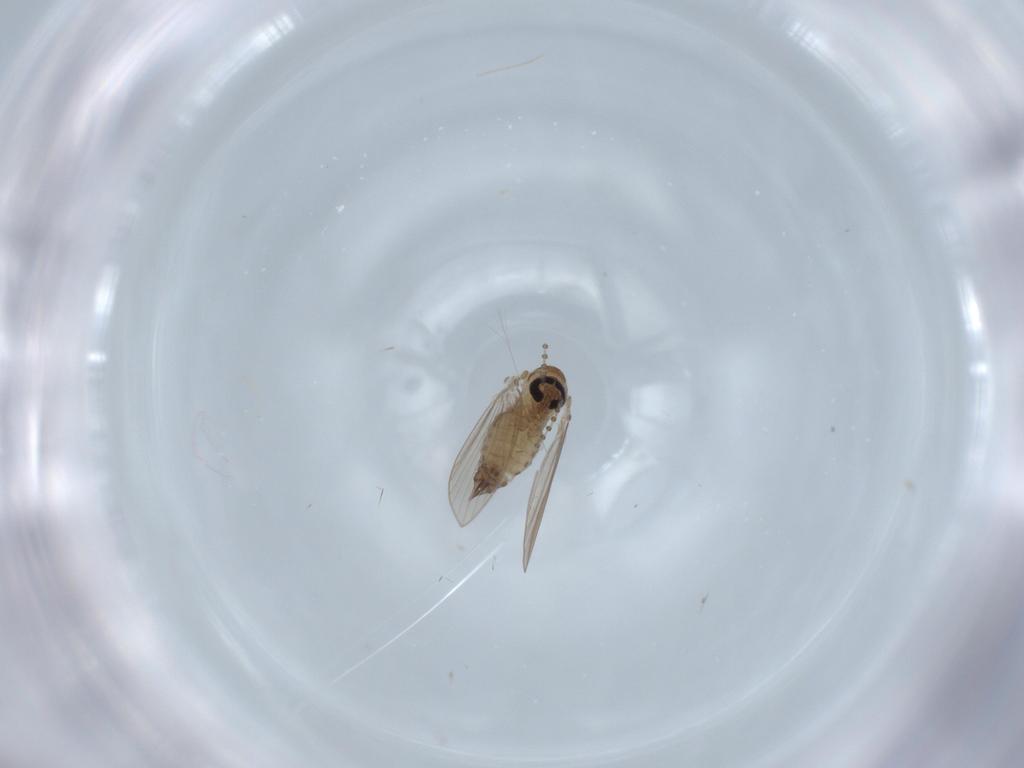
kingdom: Animalia
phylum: Arthropoda
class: Insecta
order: Diptera
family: Psychodidae
